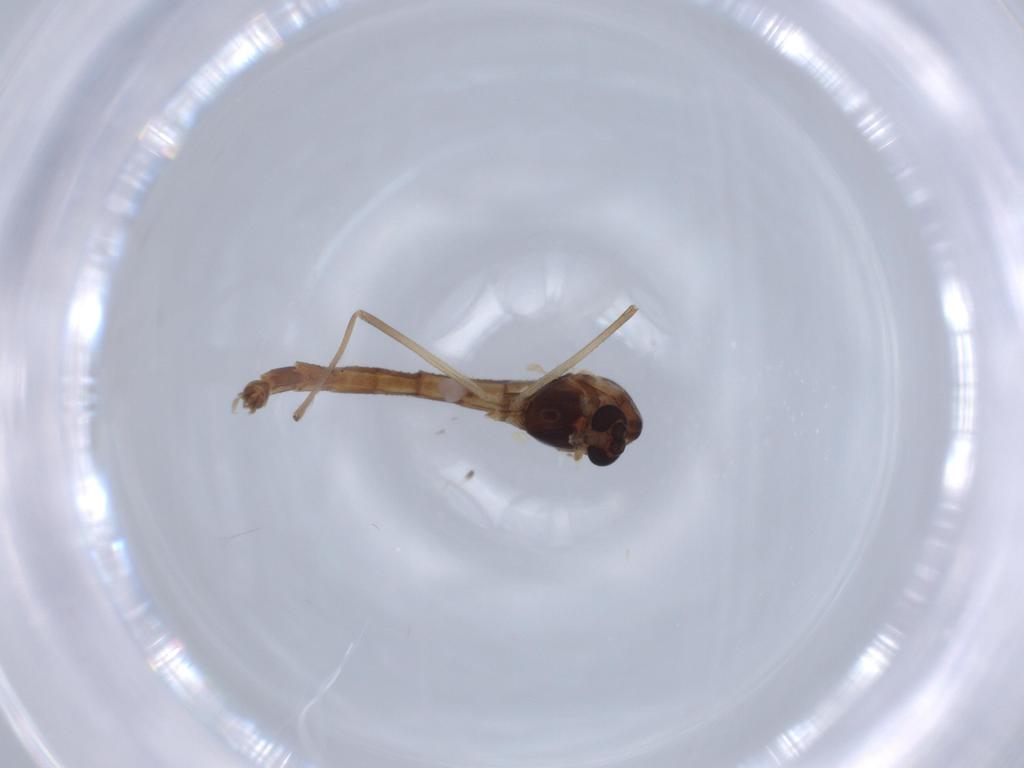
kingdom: Animalia
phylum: Arthropoda
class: Insecta
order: Diptera
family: Chironomidae
